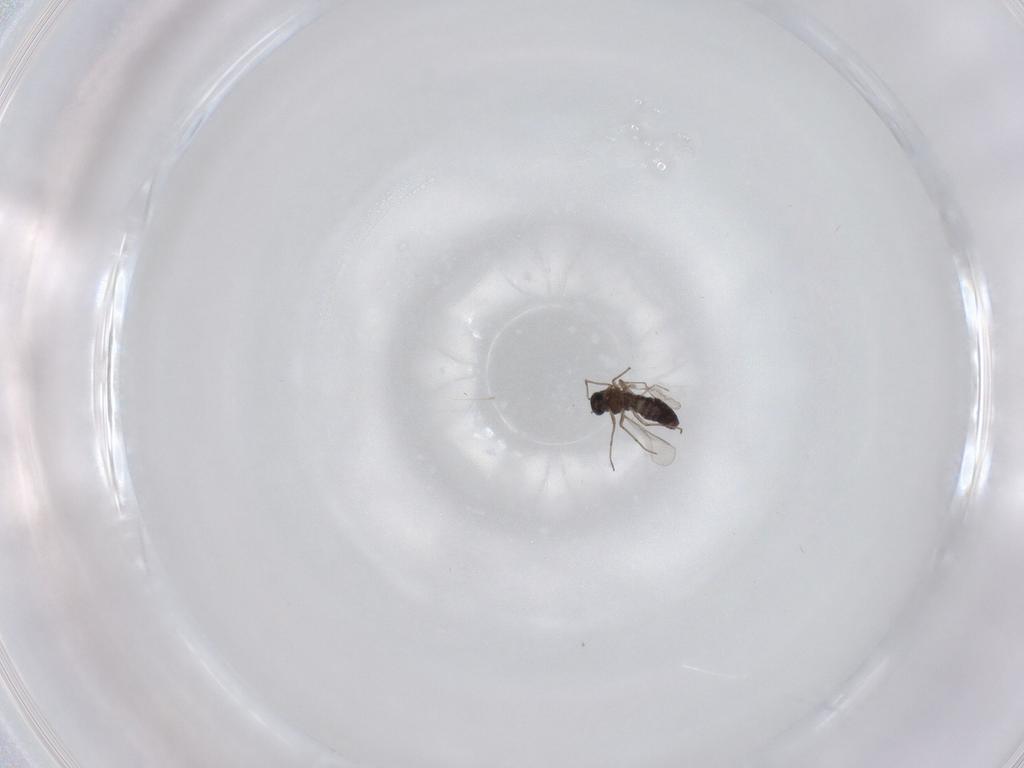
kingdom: Animalia
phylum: Arthropoda
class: Insecta
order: Diptera
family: Chironomidae
